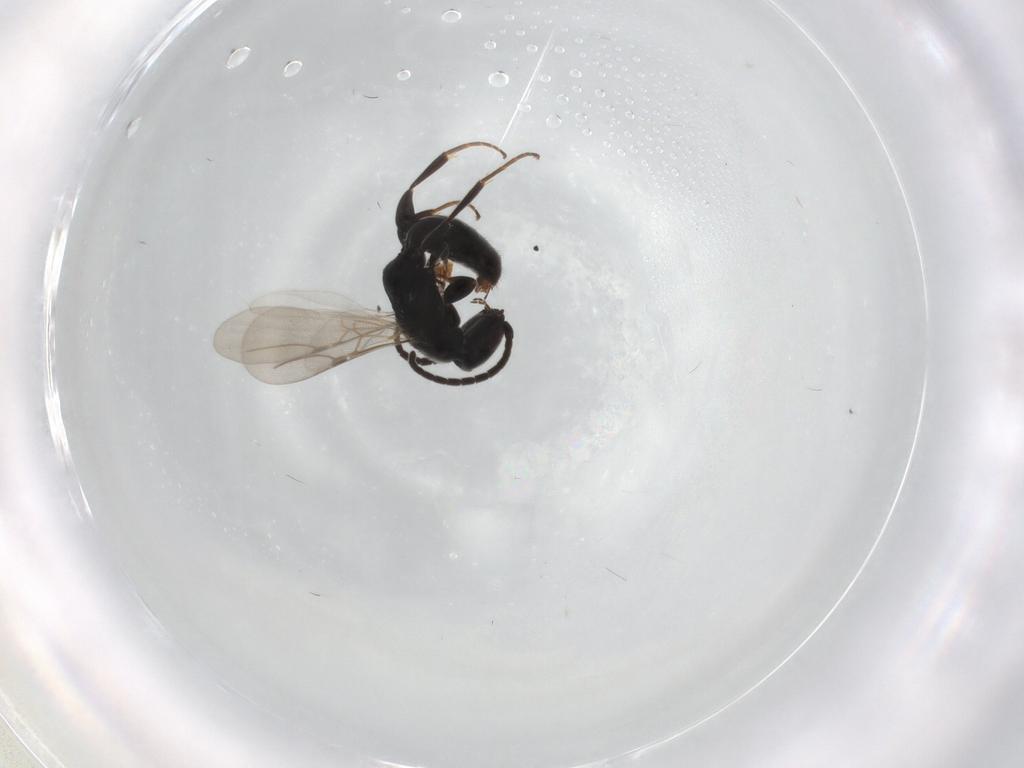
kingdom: Animalia
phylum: Arthropoda
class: Insecta
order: Hymenoptera
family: Bethylidae
